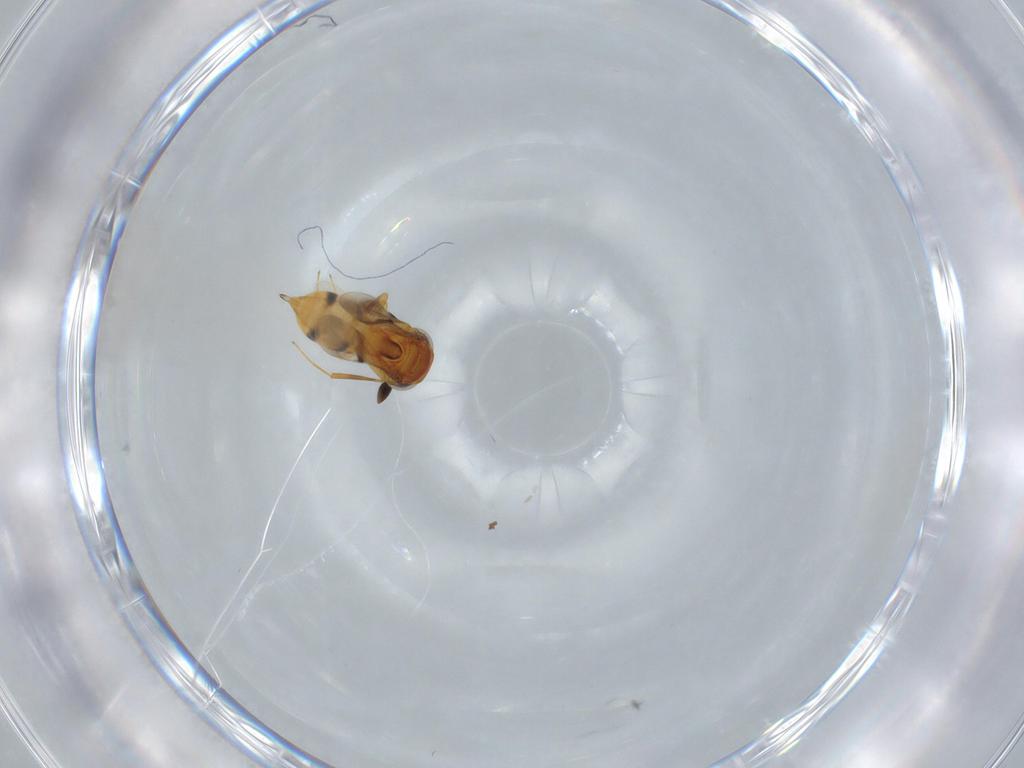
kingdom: Animalia
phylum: Arthropoda
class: Insecta
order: Hymenoptera
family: Scelionidae
